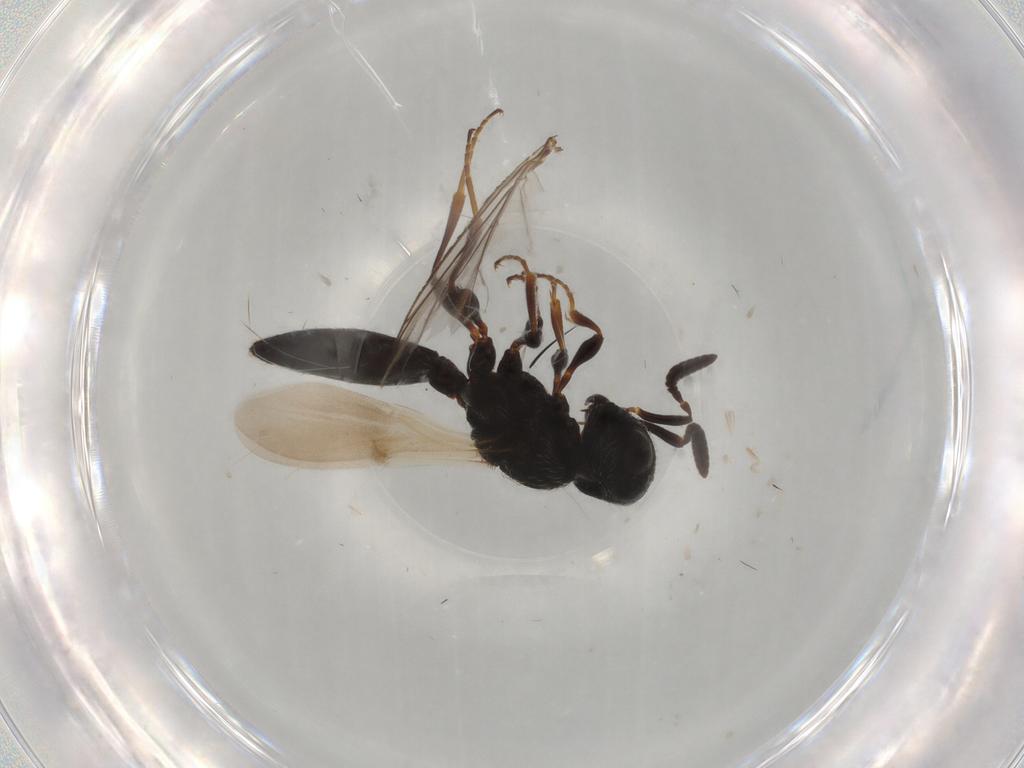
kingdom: Animalia
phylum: Arthropoda
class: Insecta
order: Hymenoptera
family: Scelionidae
